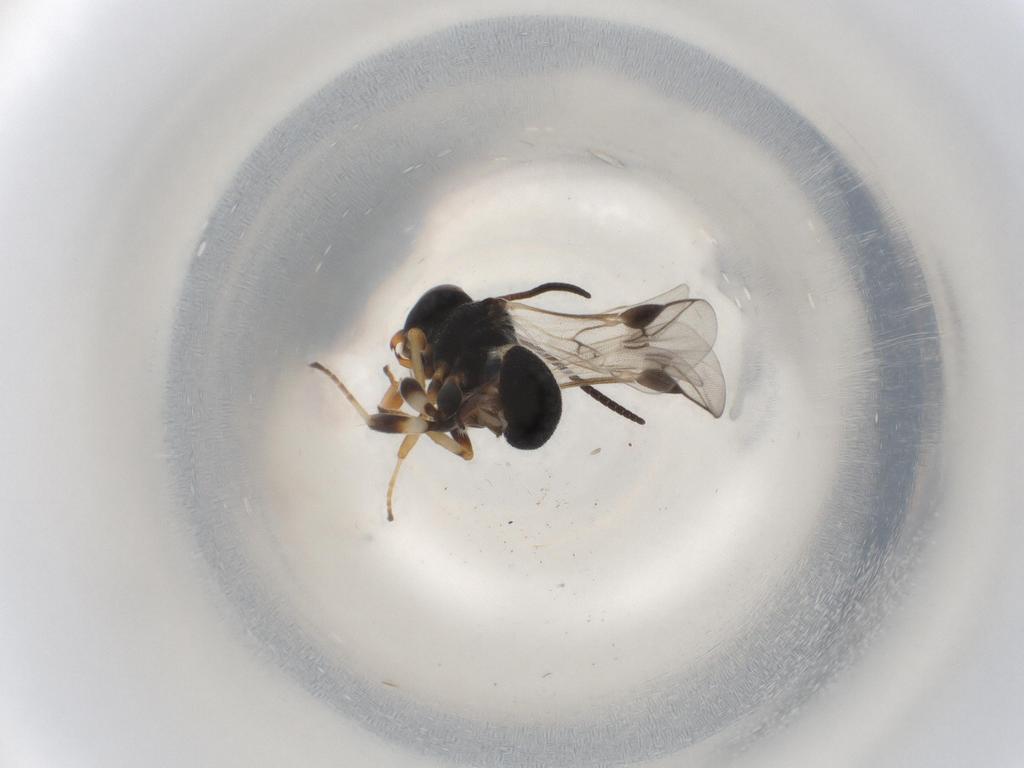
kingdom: Animalia
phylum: Arthropoda
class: Insecta
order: Hymenoptera
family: Braconidae
